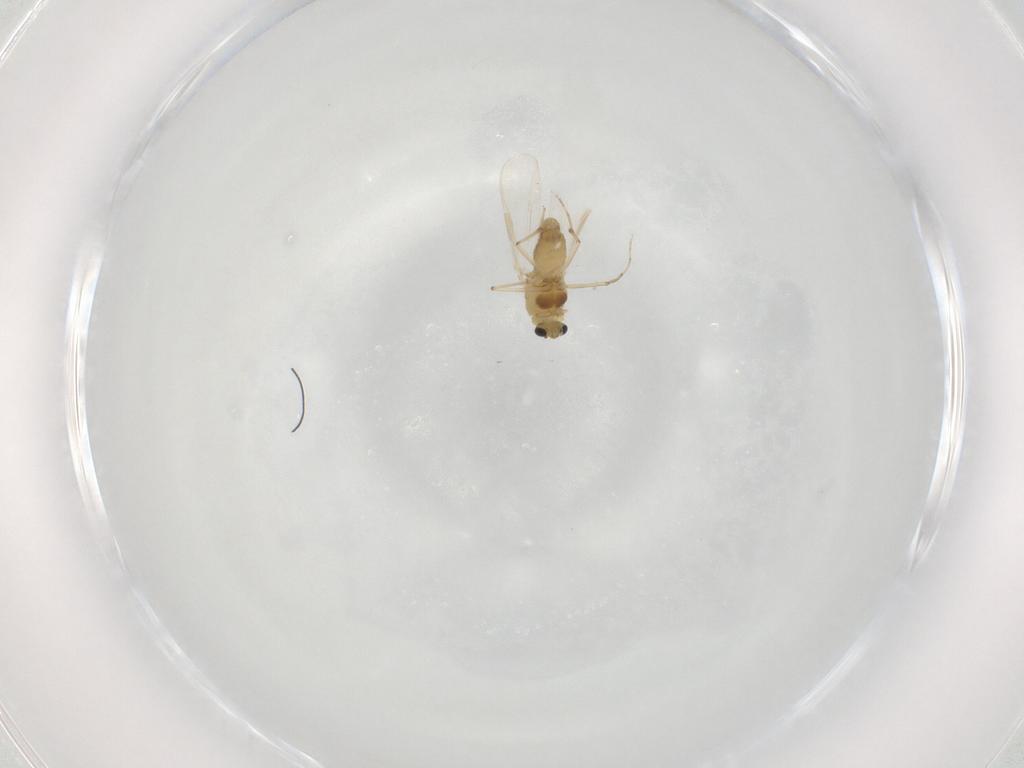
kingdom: Animalia
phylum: Arthropoda
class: Insecta
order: Diptera
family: Chironomidae
